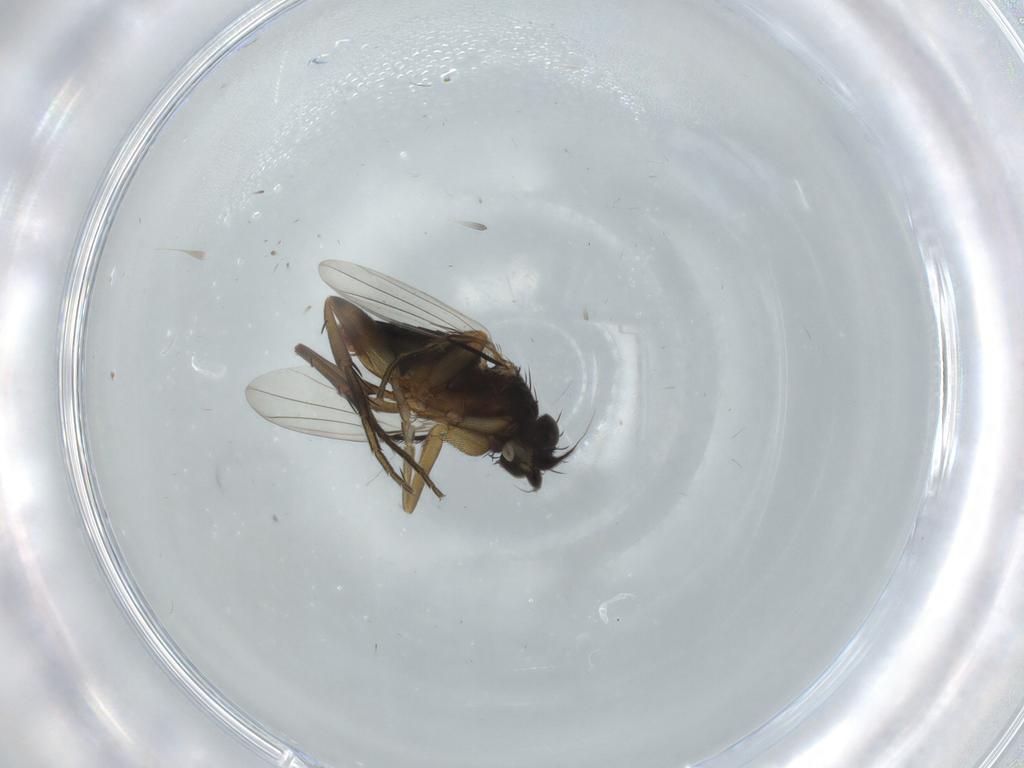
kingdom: Animalia
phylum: Arthropoda
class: Insecta
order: Diptera
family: Phoridae
